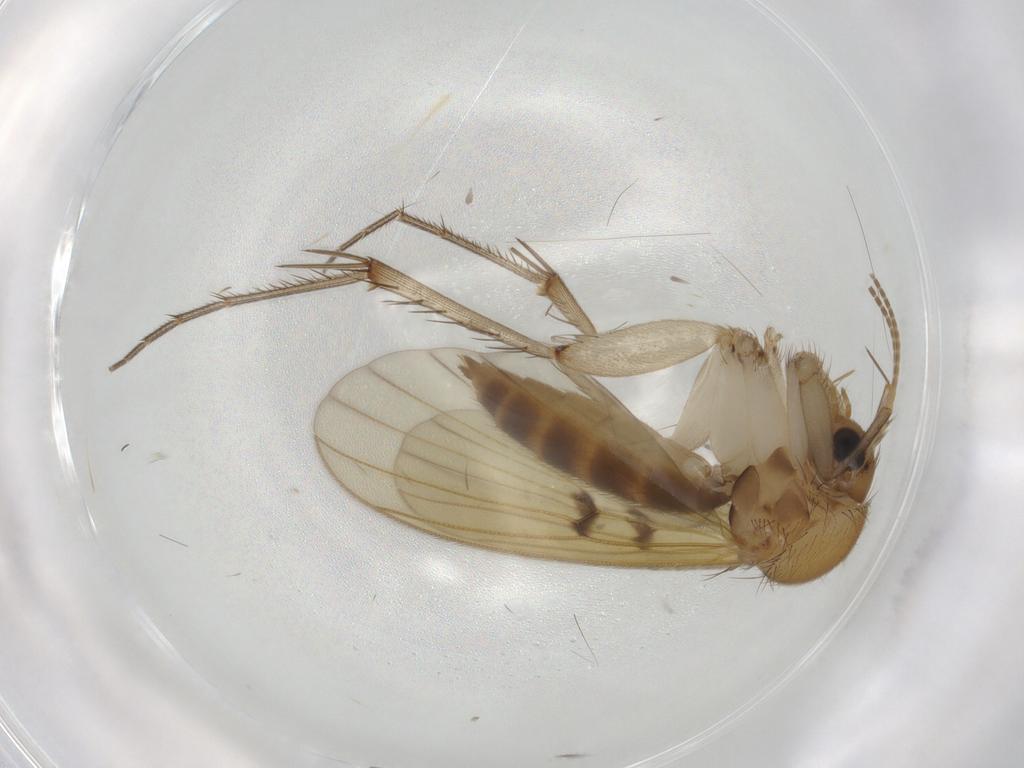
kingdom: Animalia
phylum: Arthropoda
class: Insecta
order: Diptera
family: Mycetophilidae
